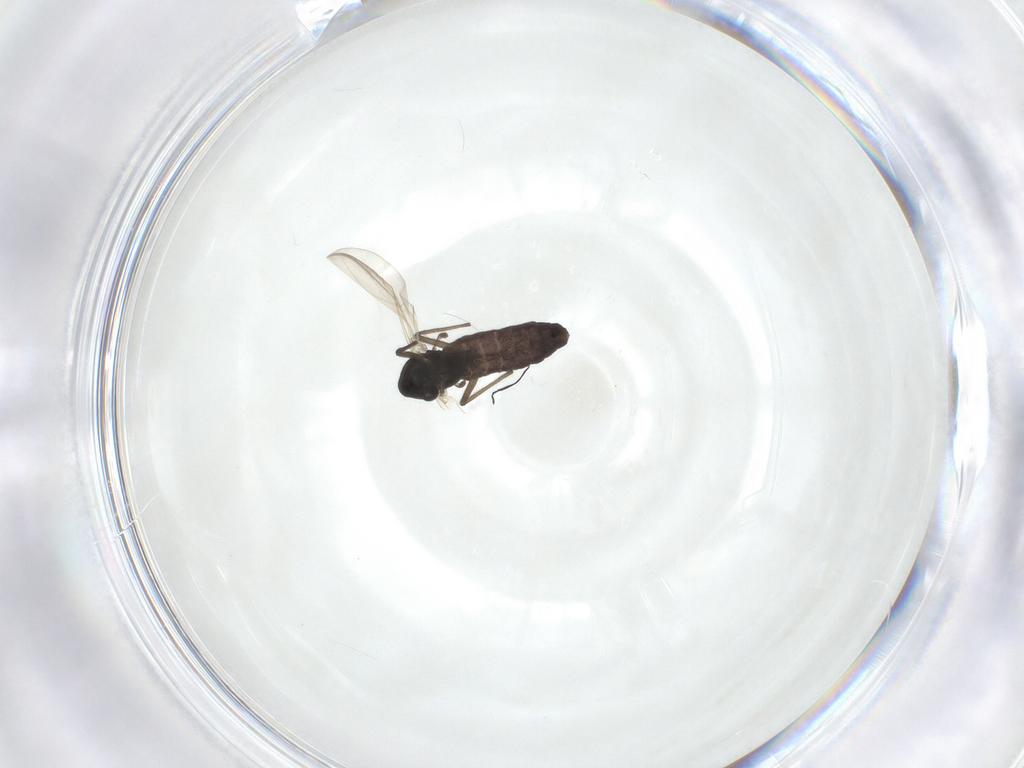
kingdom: Animalia
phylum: Arthropoda
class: Insecta
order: Diptera
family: Chironomidae
